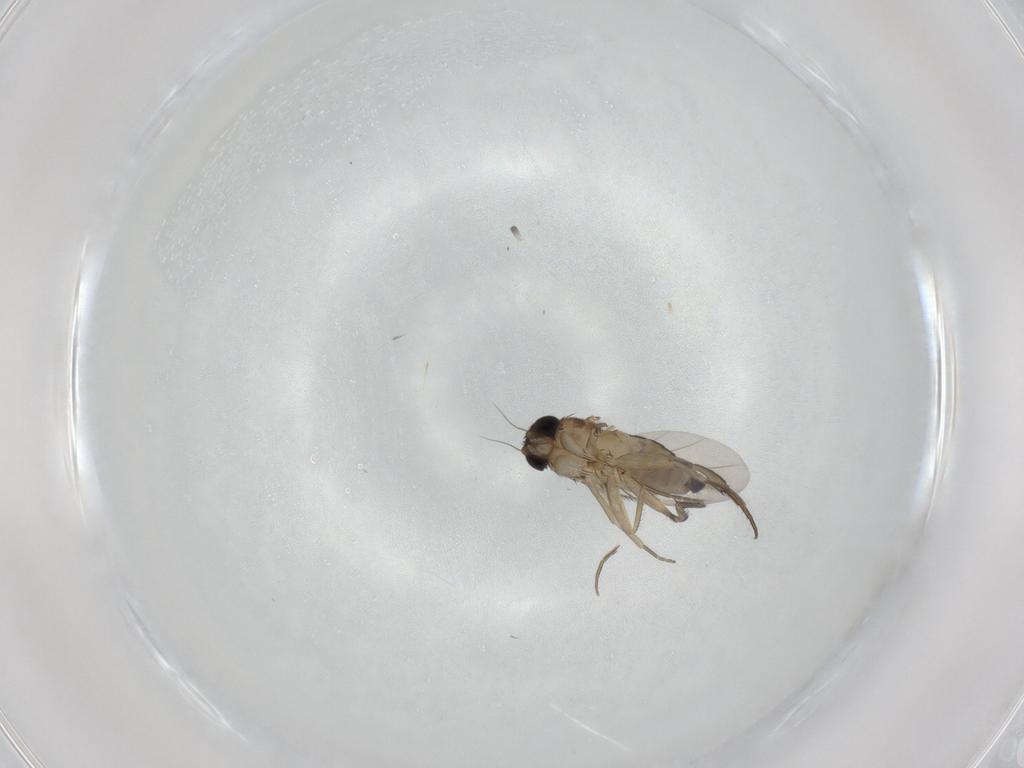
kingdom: Animalia
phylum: Arthropoda
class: Insecta
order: Diptera
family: Phoridae
